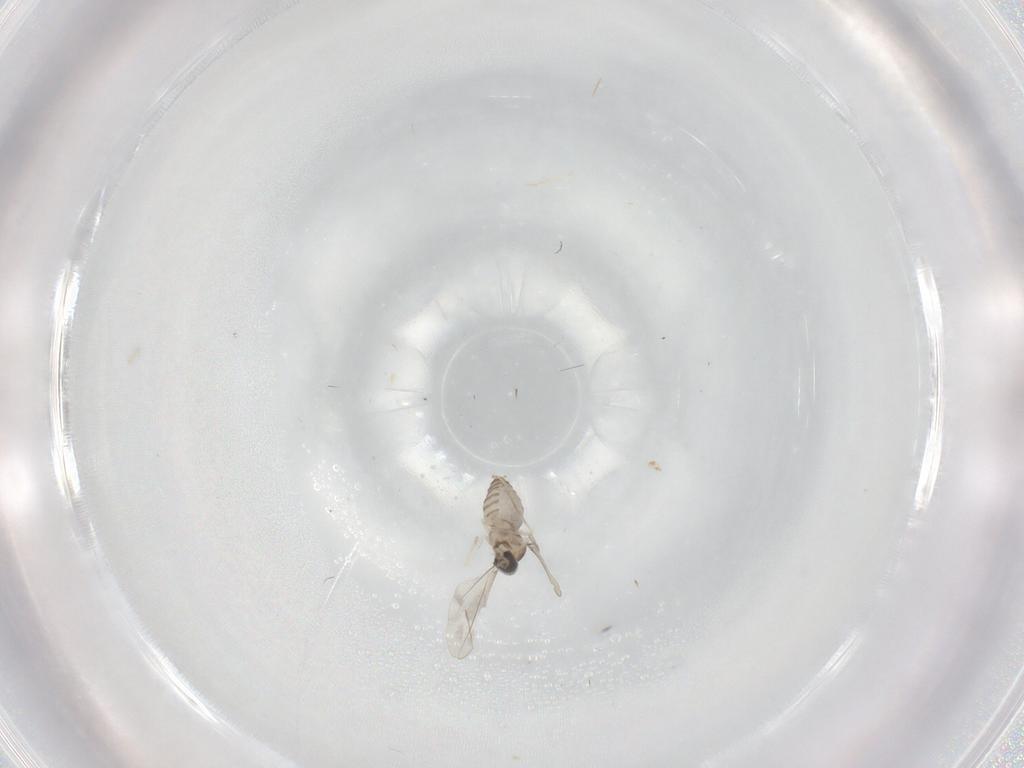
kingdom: Animalia
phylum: Arthropoda
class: Insecta
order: Diptera
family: Cecidomyiidae
